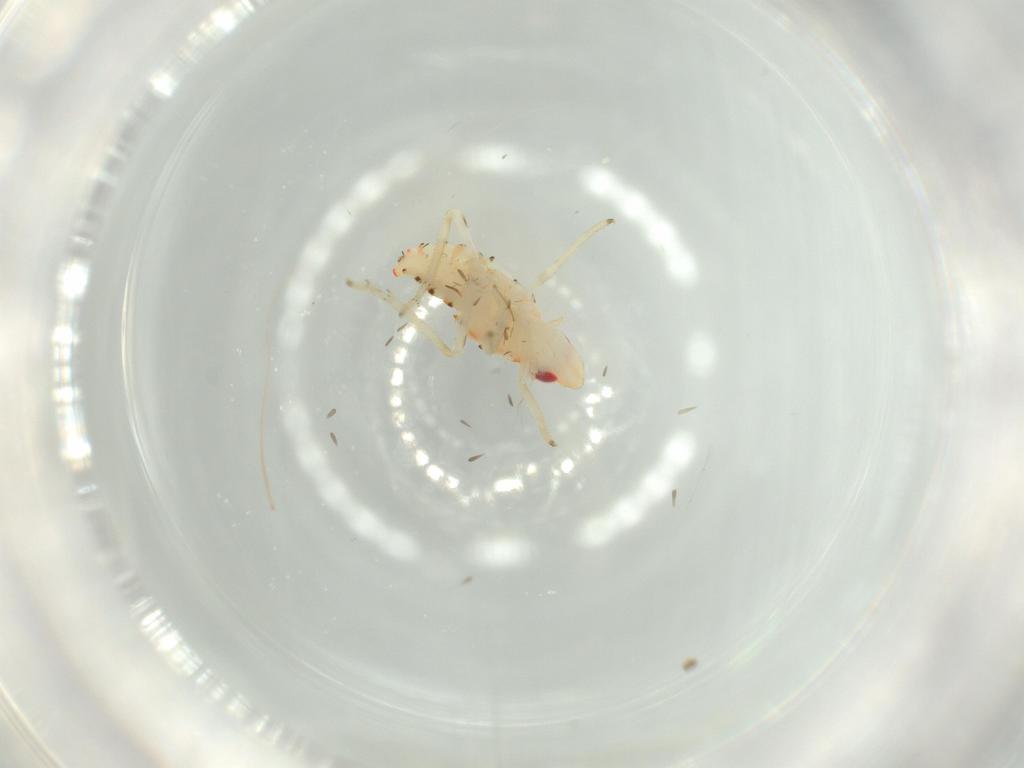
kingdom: Animalia
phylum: Arthropoda
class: Insecta
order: Hemiptera
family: Tropiduchidae
